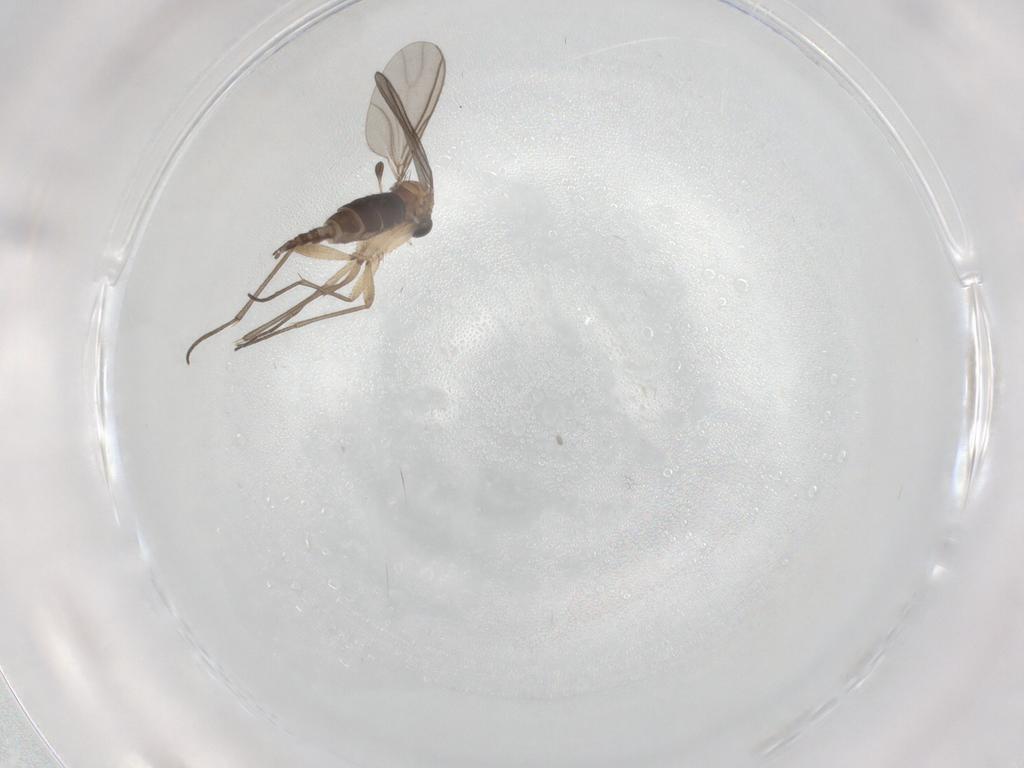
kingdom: Animalia
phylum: Arthropoda
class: Insecta
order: Diptera
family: Sciaridae
